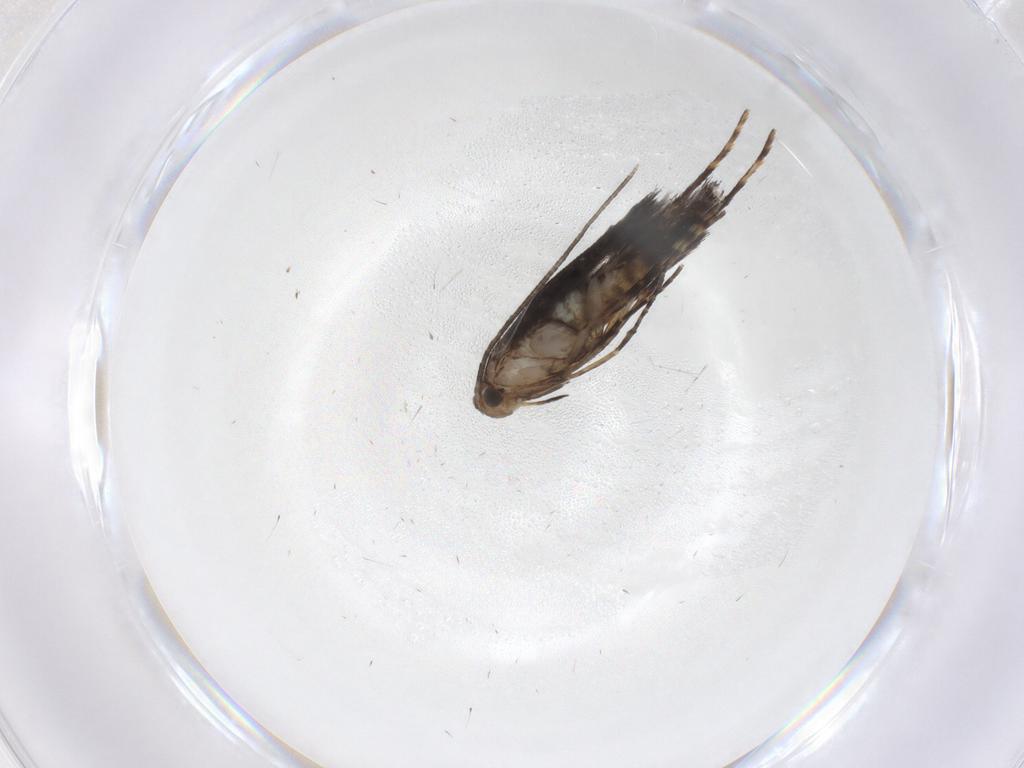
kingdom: Animalia
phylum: Arthropoda
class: Insecta
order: Lepidoptera
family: Gracillariidae
